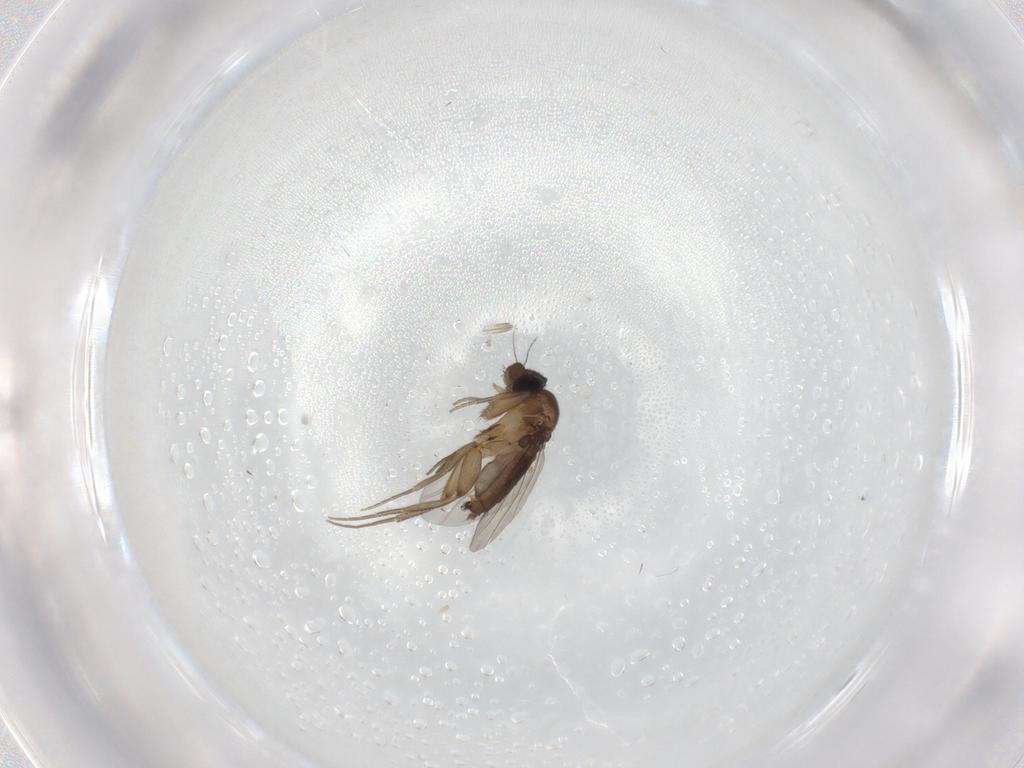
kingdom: Animalia
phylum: Arthropoda
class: Insecta
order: Diptera
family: Phoridae
